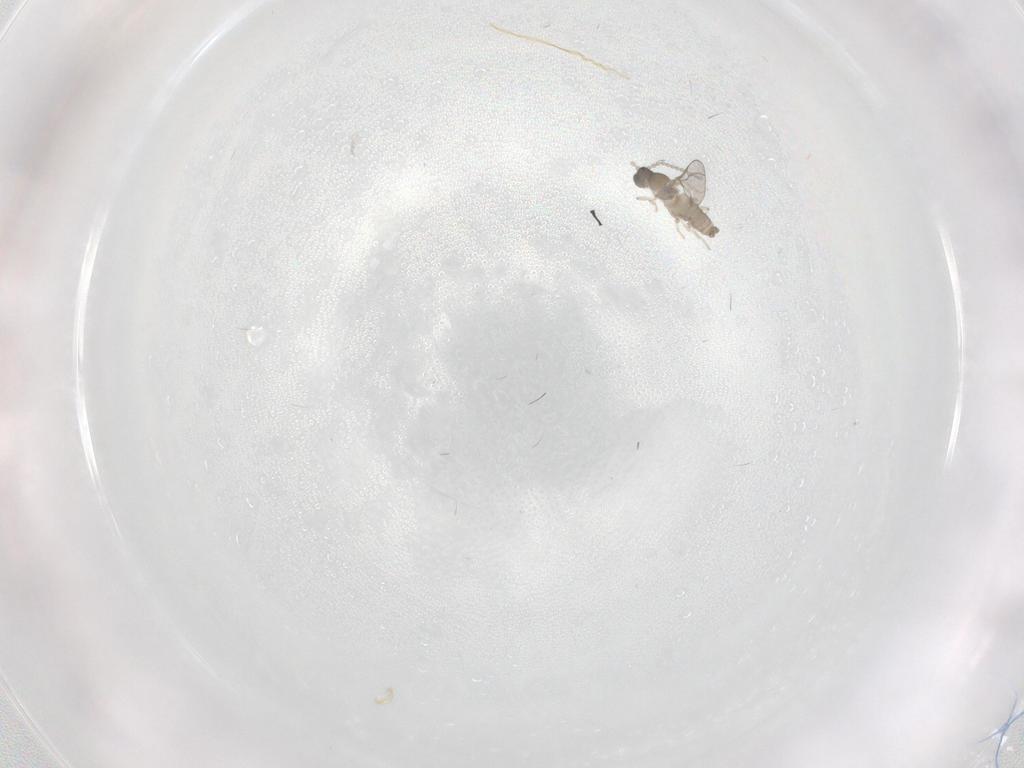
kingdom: Animalia
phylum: Arthropoda
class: Insecta
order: Diptera
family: Cecidomyiidae
